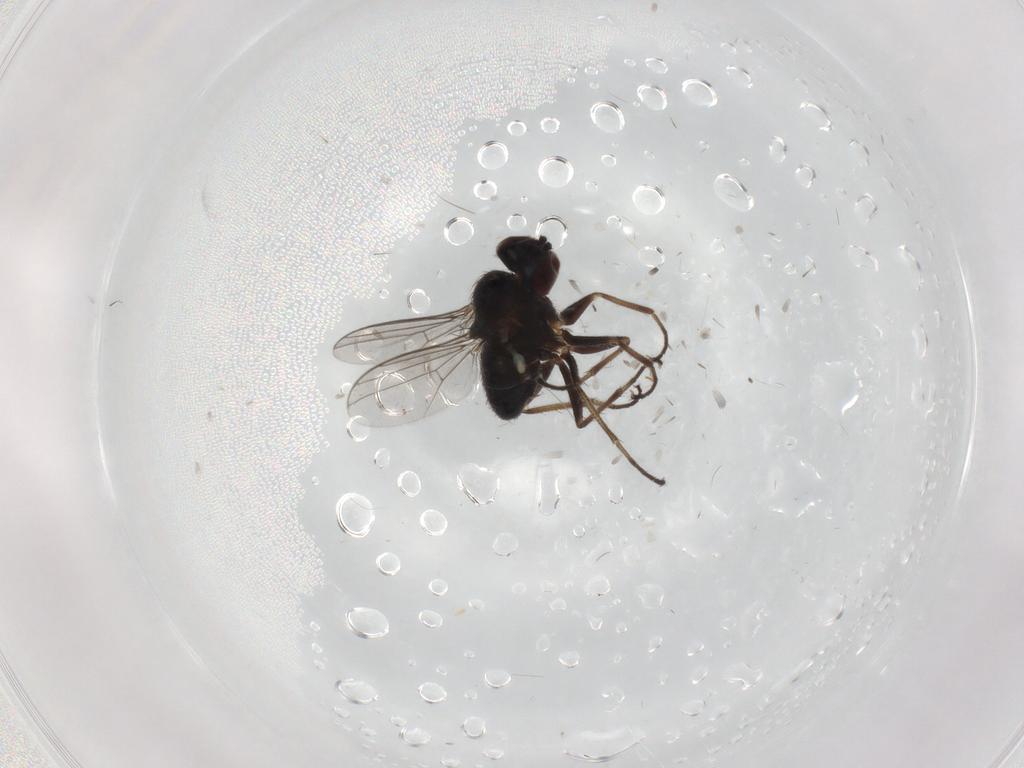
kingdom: Animalia
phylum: Arthropoda
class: Insecta
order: Diptera
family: Dolichopodidae
